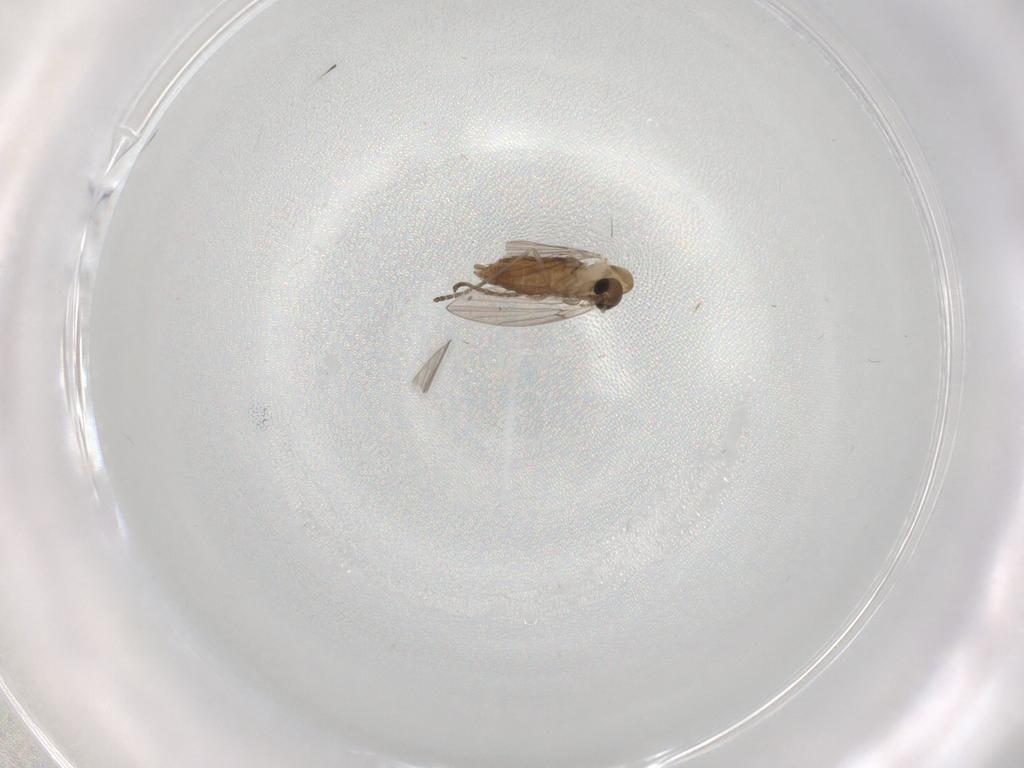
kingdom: Animalia
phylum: Arthropoda
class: Insecta
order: Diptera
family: Psychodidae
